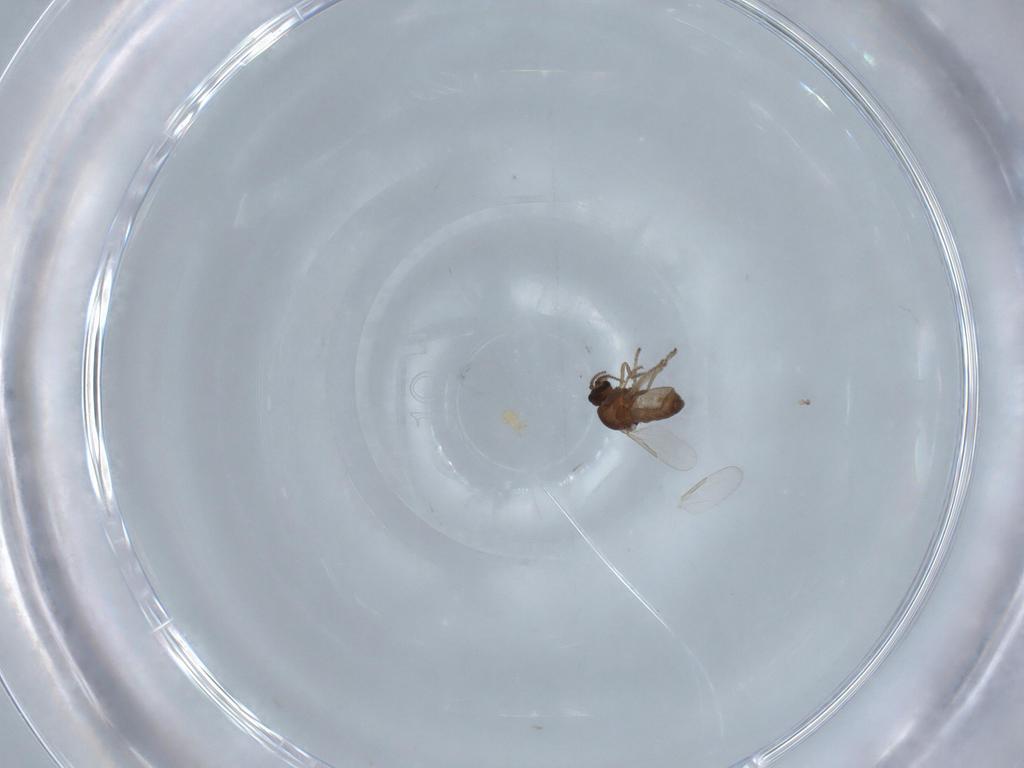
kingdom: Animalia
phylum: Arthropoda
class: Insecta
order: Diptera
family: Ceratopogonidae
